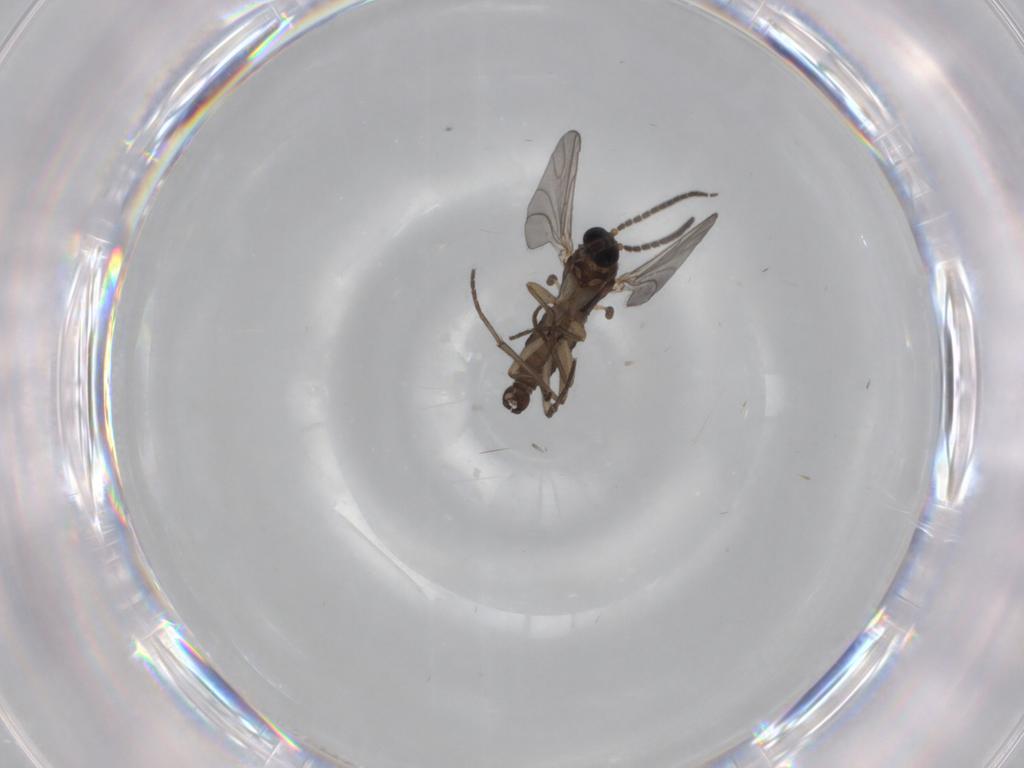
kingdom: Animalia
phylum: Arthropoda
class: Insecta
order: Diptera
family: Sciaridae
